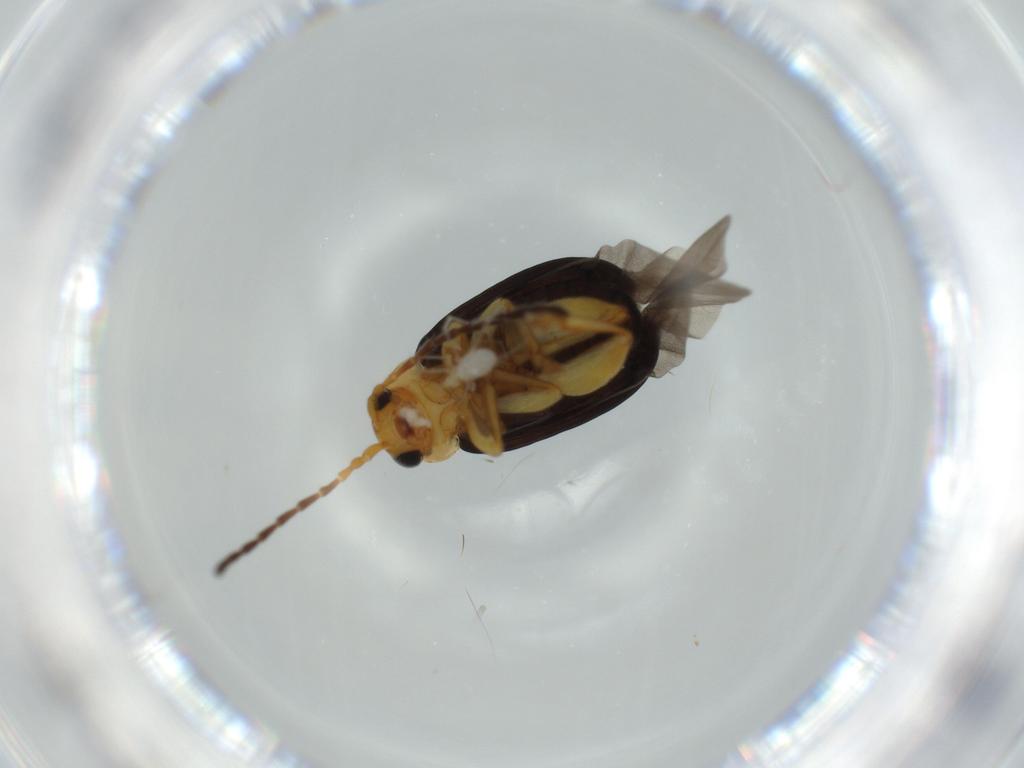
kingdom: Animalia
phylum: Arthropoda
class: Insecta
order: Coleoptera
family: Chrysomelidae
